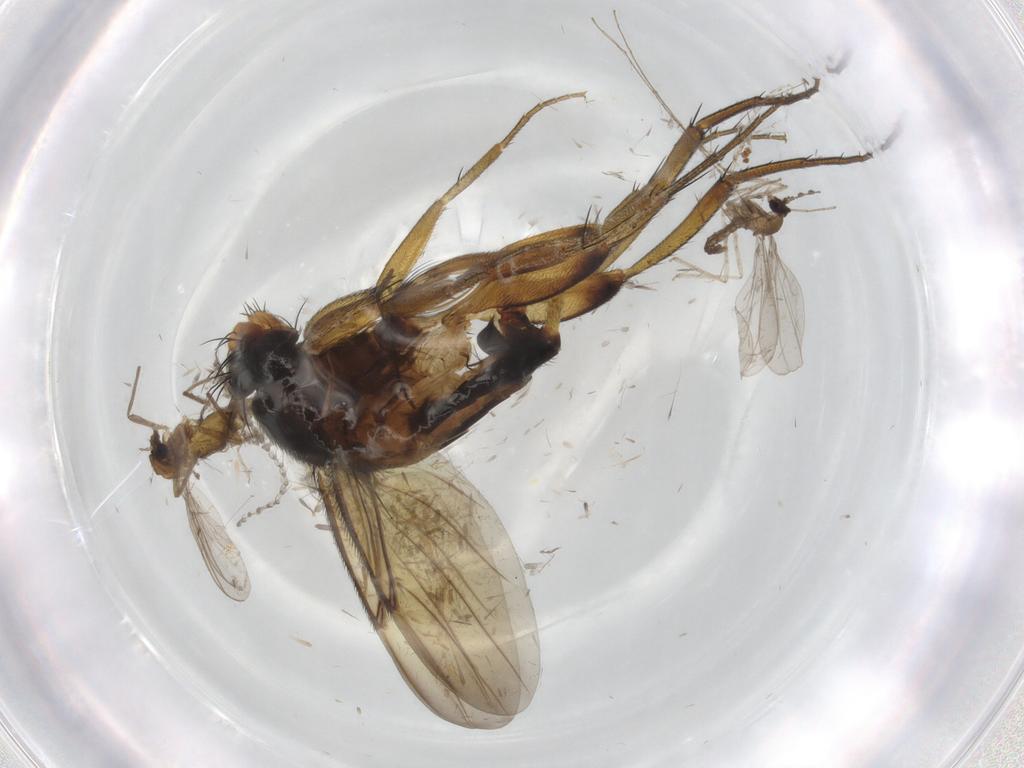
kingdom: Animalia
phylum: Arthropoda
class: Insecta
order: Diptera
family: Chironomidae
